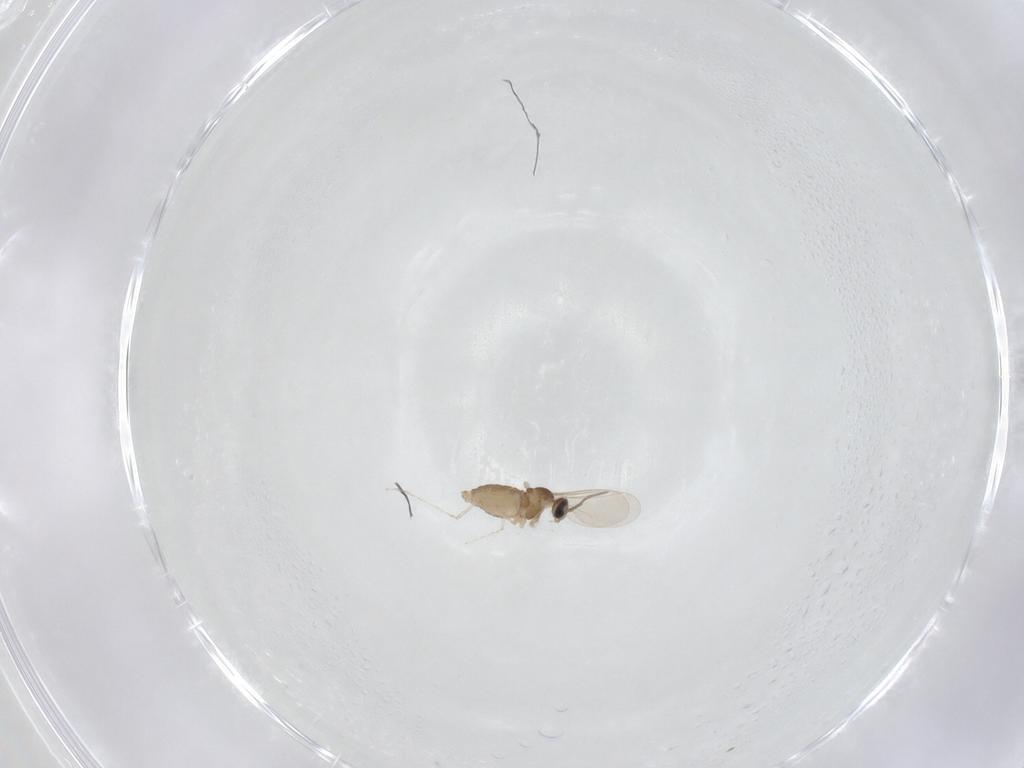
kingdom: Animalia
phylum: Arthropoda
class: Insecta
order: Diptera
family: Cecidomyiidae
